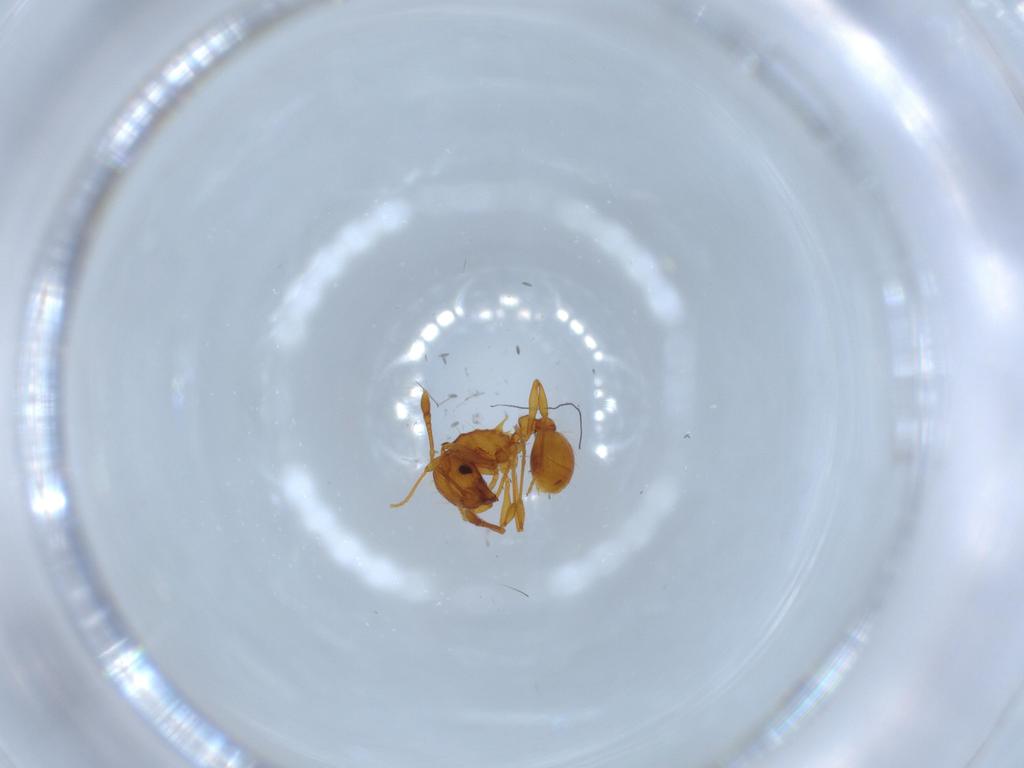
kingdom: Animalia
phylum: Arthropoda
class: Insecta
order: Hymenoptera
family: Formicidae
